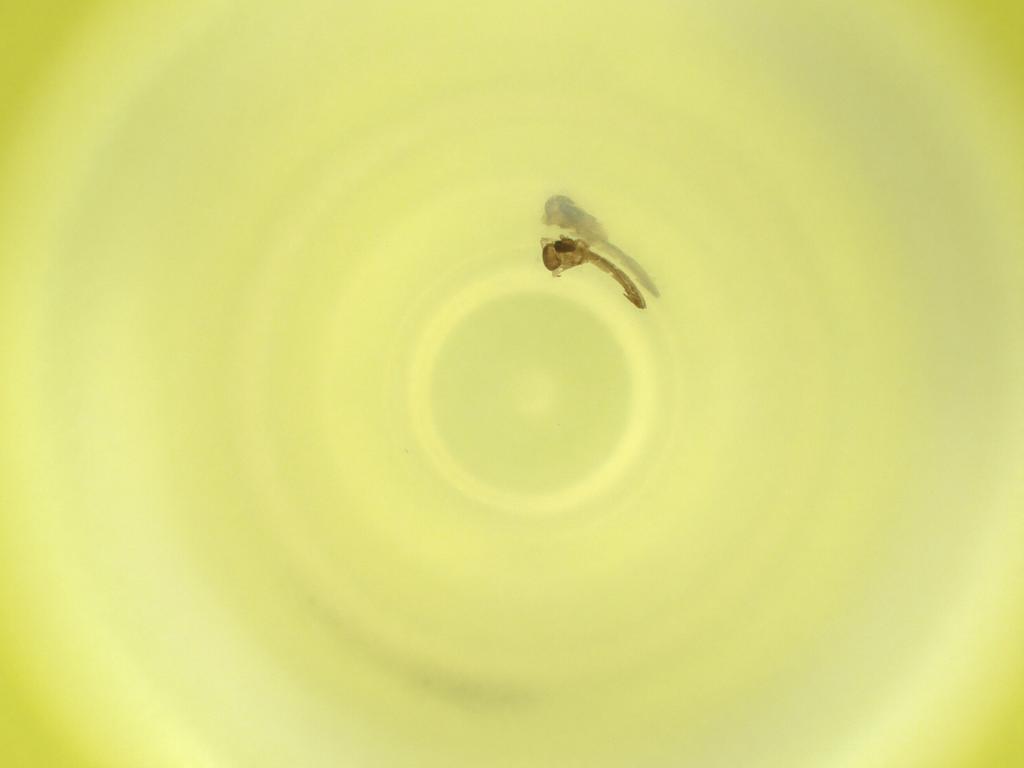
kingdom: Animalia
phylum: Arthropoda
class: Insecta
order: Diptera
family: Cecidomyiidae
